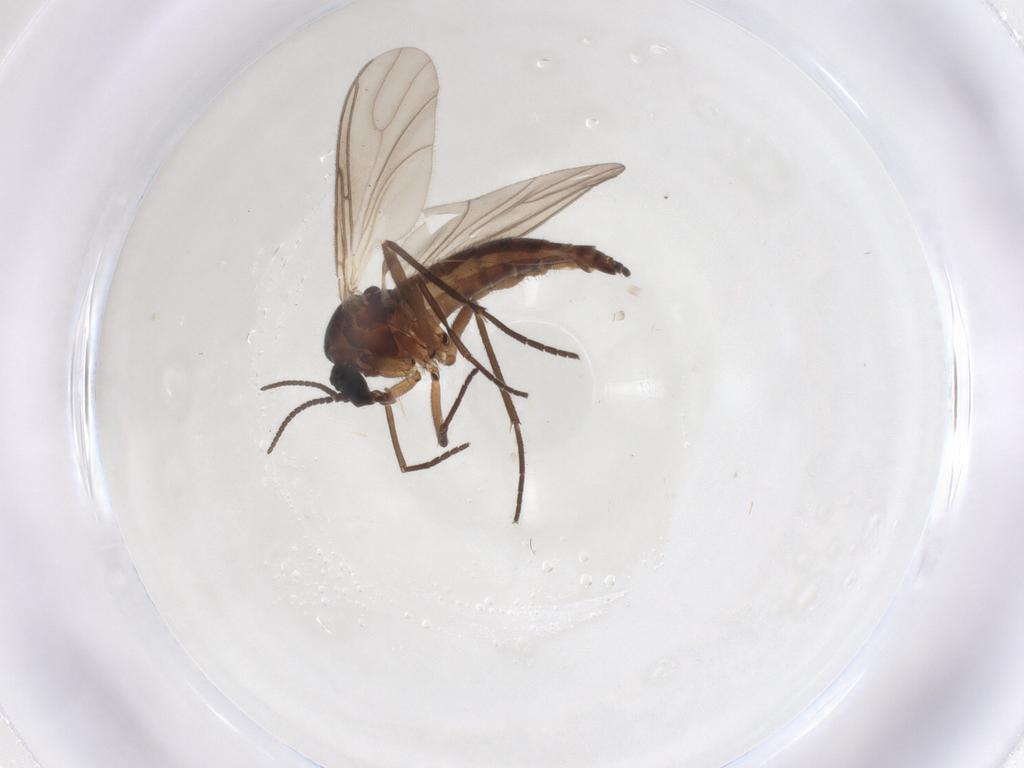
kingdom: Animalia
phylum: Arthropoda
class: Insecta
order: Diptera
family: Sciaridae
